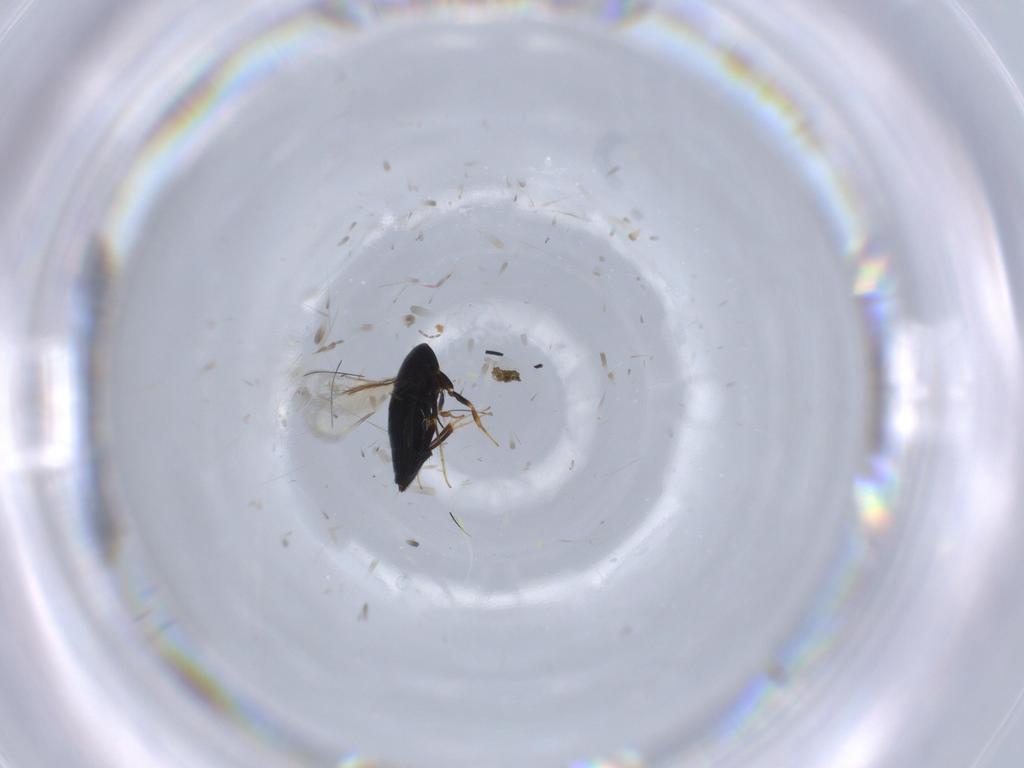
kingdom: Animalia
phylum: Arthropoda
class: Insecta
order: Hymenoptera
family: Signiphoridae
